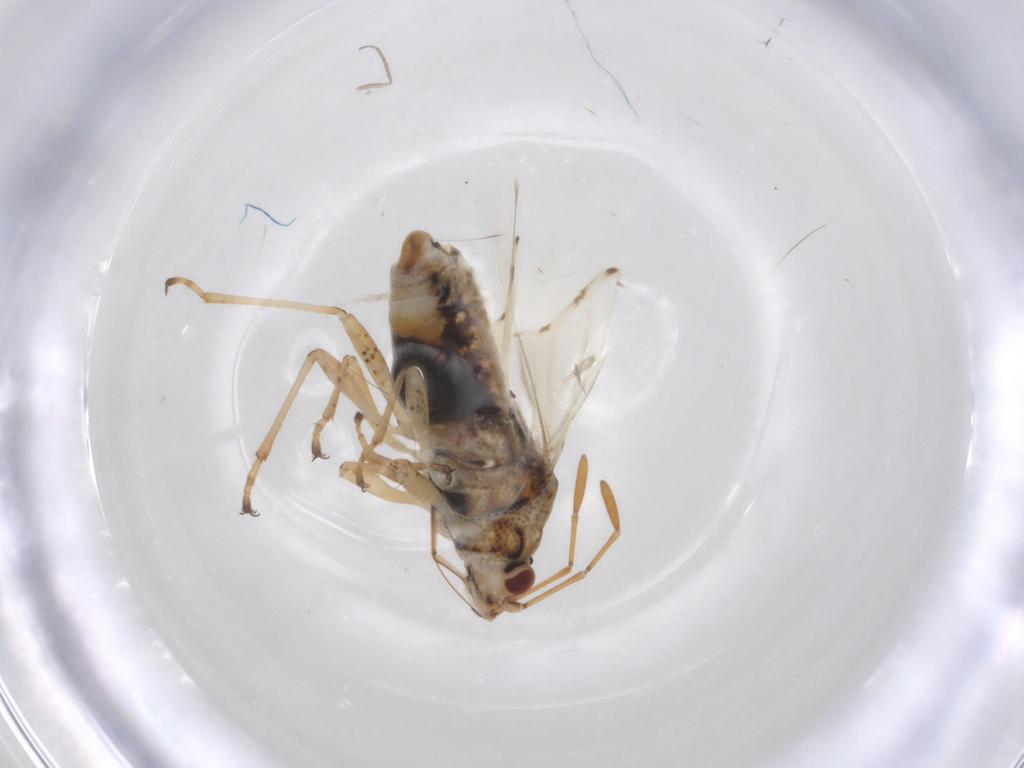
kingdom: Animalia
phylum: Arthropoda
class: Insecta
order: Hemiptera
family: Lygaeidae
